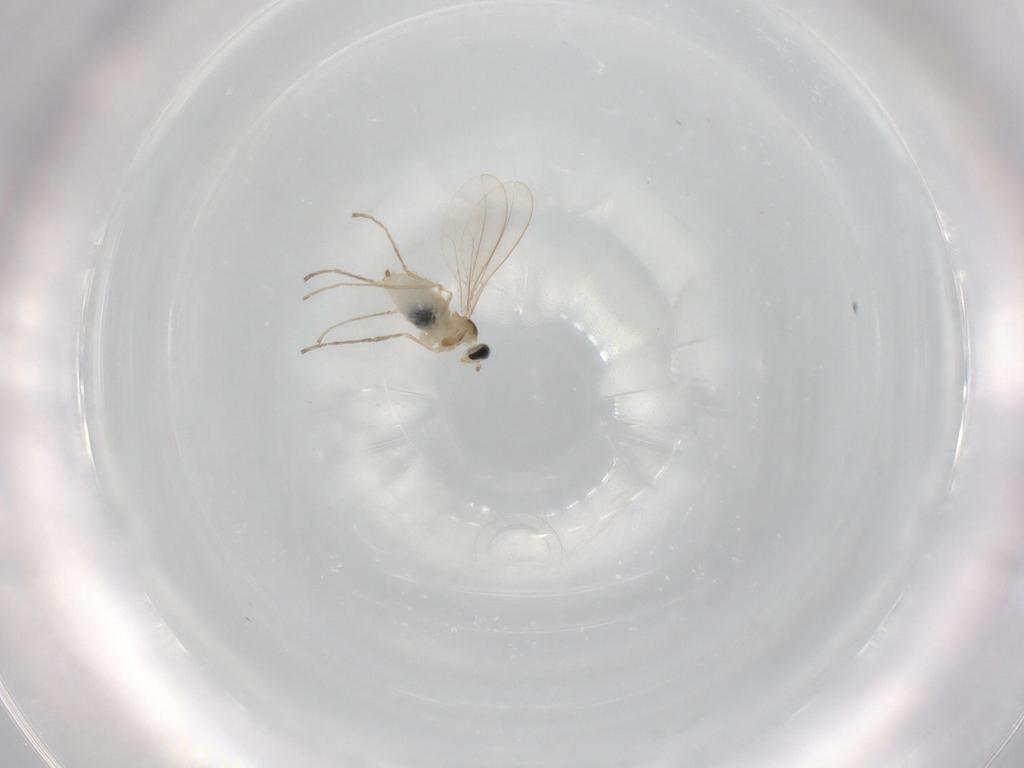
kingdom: Animalia
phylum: Arthropoda
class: Insecta
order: Diptera
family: Cecidomyiidae
